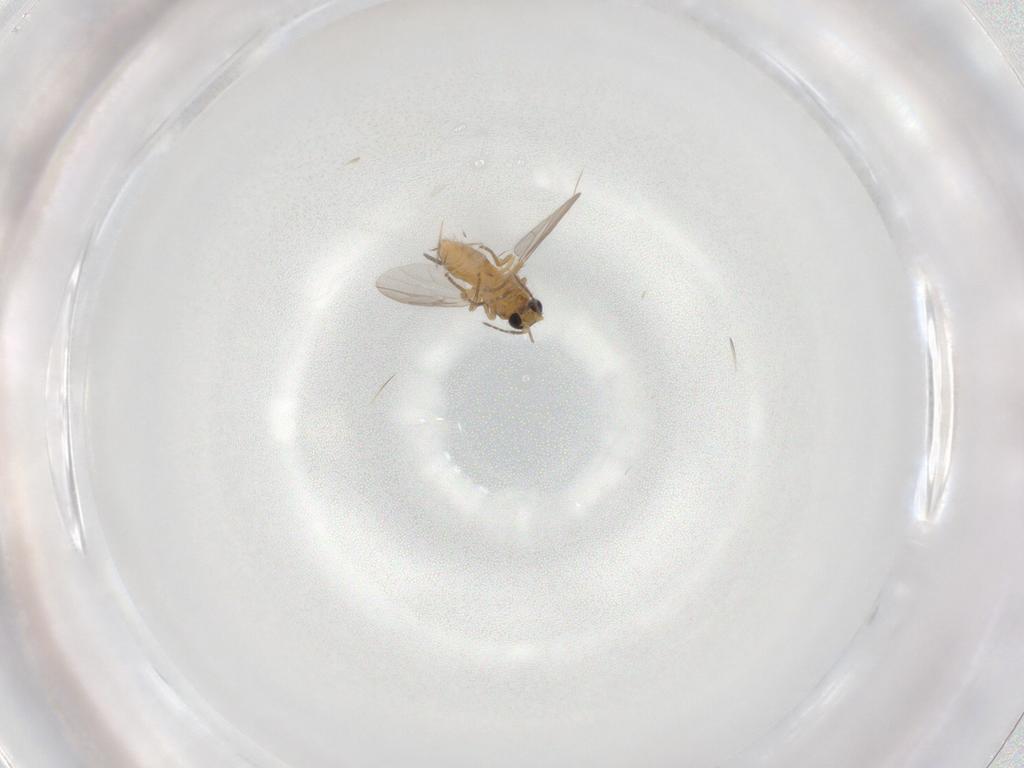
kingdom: Animalia
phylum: Arthropoda
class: Insecta
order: Diptera
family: Ceratopogonidae
